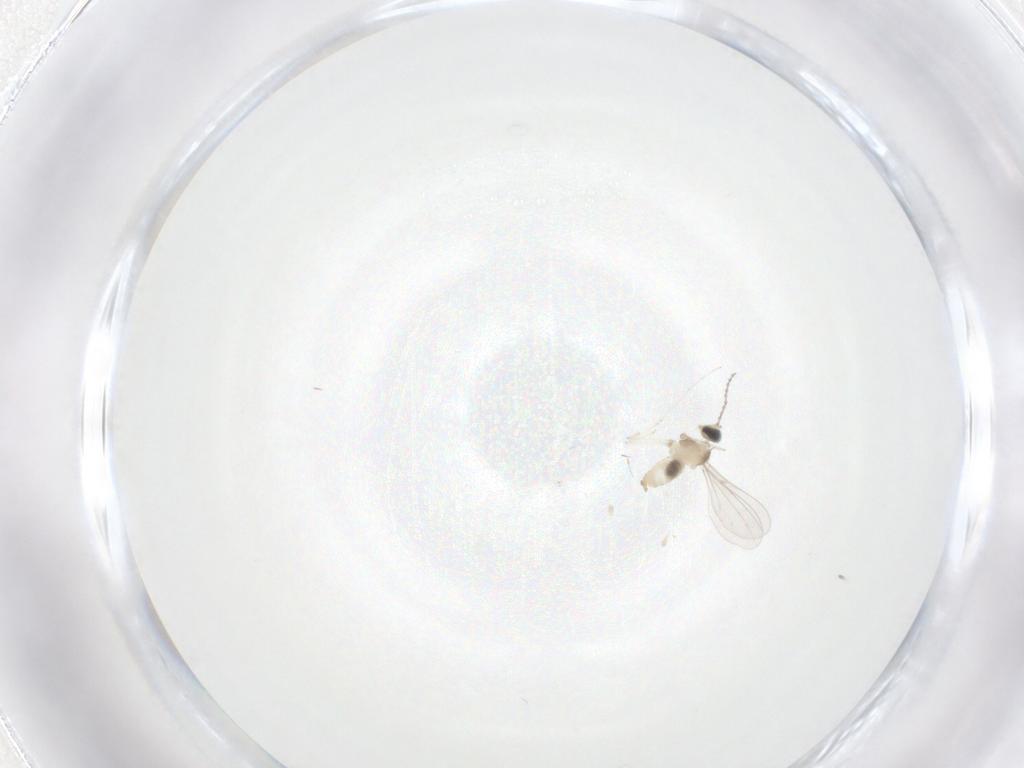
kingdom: Animalia
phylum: Arthropoda
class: Insecta
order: Diptera
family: Cecidomyiidae
